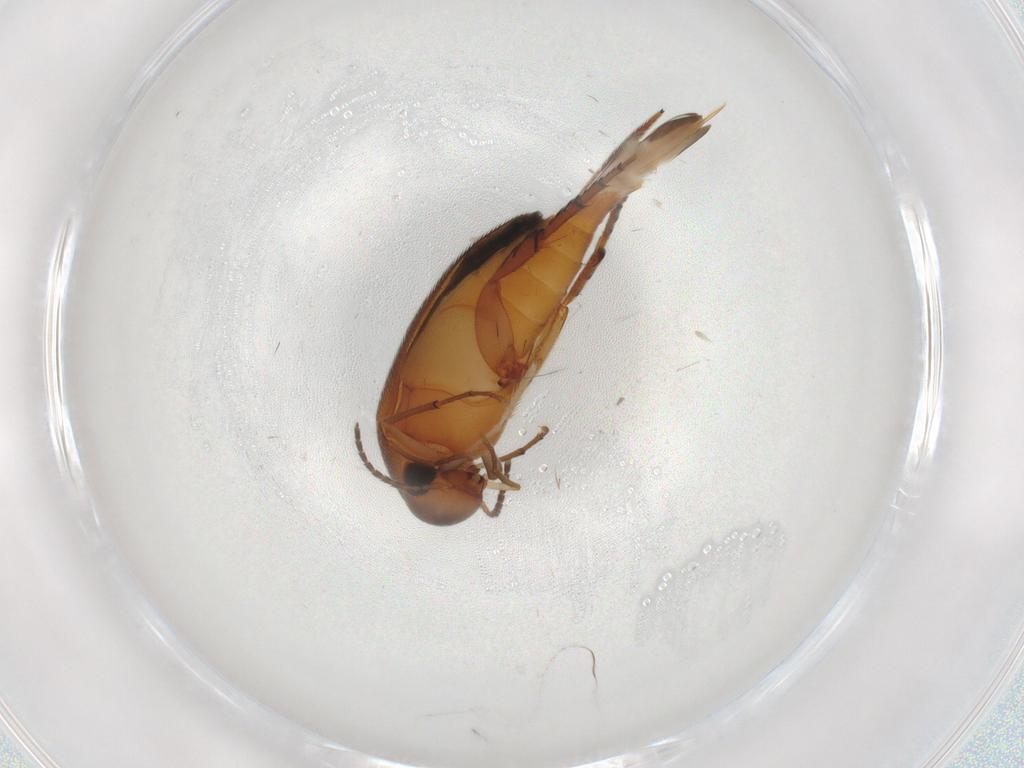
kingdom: Animalia
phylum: Arthropoda
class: Insecta
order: Coleoptera
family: Mordellidae
